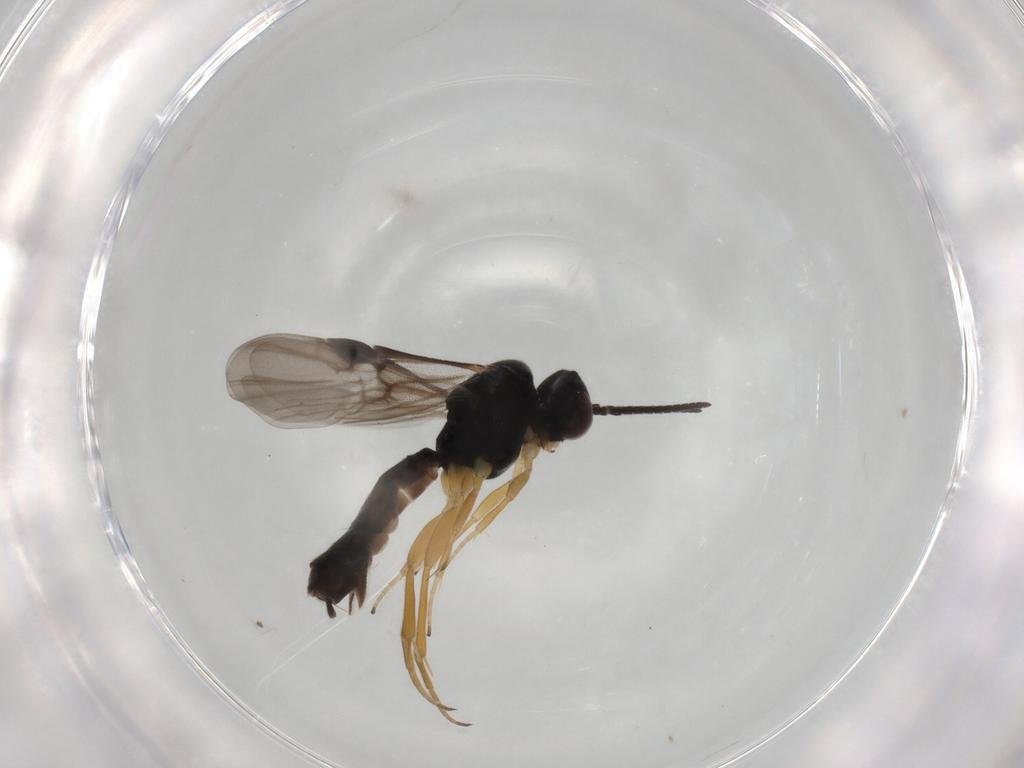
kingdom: Animalia
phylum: Arthropoda
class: Insecta
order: Hymenoptera
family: Braconidae
